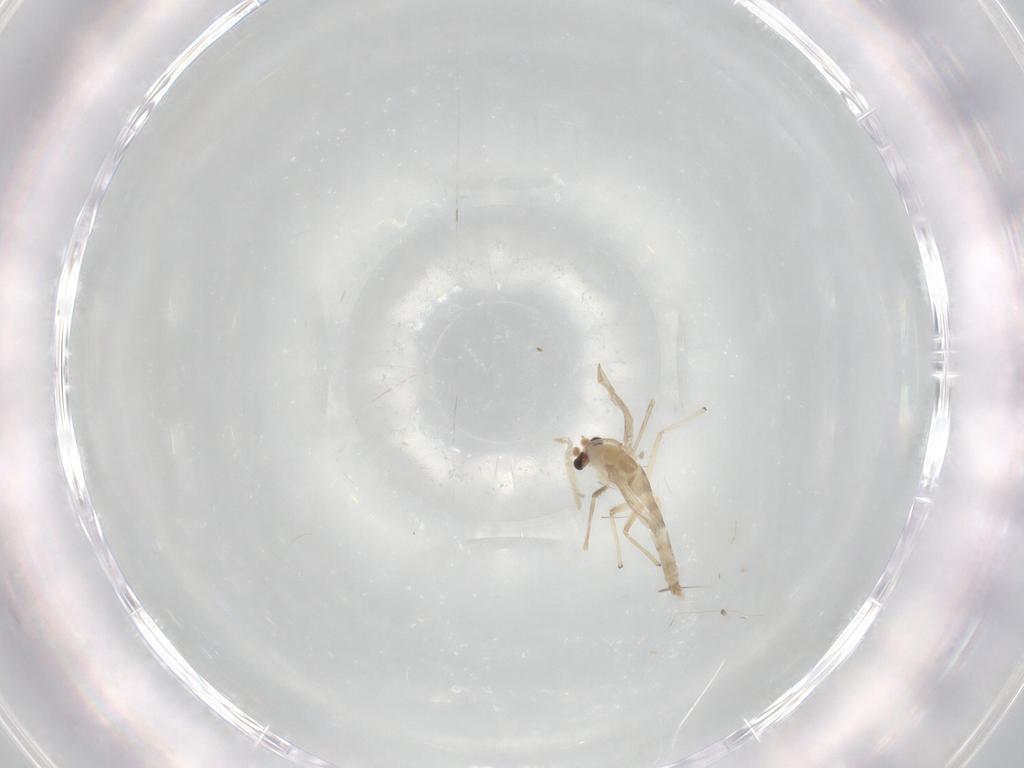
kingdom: Animalia
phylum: Arthropoda
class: Insecta
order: Diptera
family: Chironomidae
